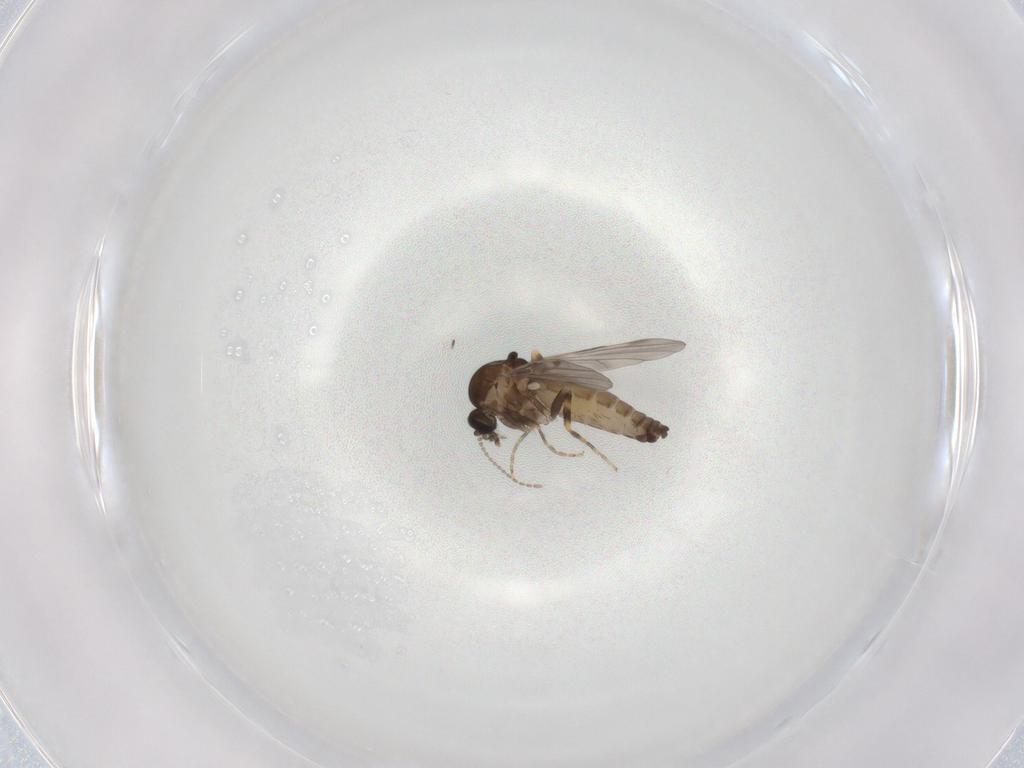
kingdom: Animalia
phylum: Arthropoda
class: Insecta
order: Diptera
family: Ceratopogonidae
